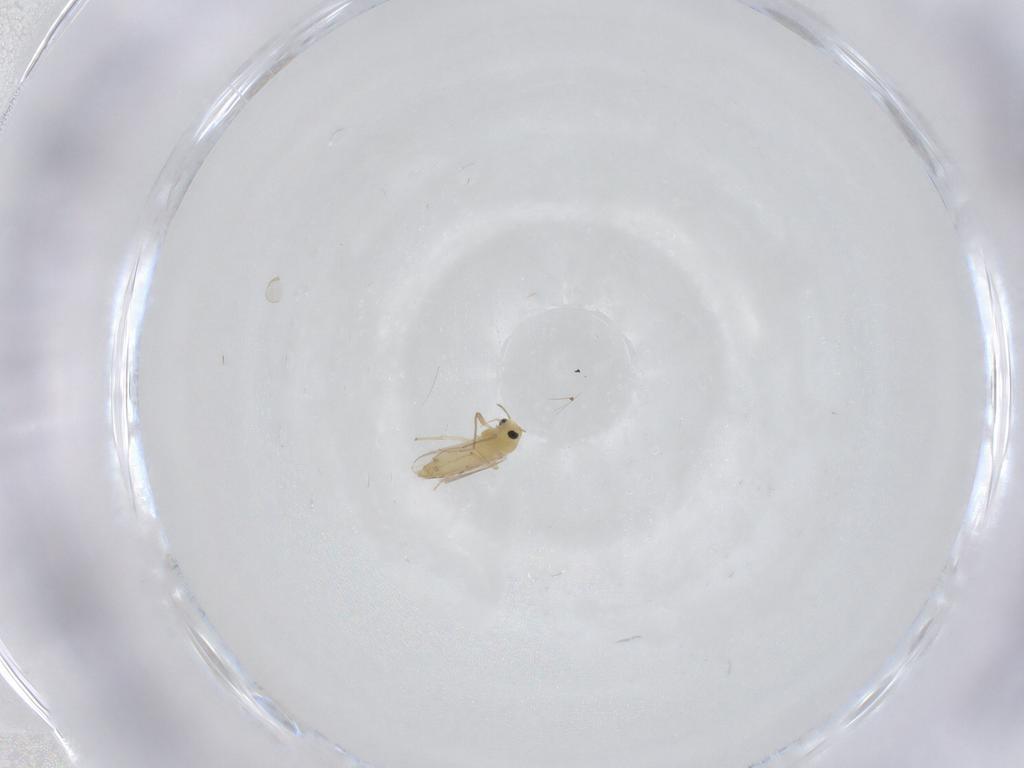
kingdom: Animalia
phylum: Arthropoda
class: Insecta
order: Diptera
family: Chironomidae
